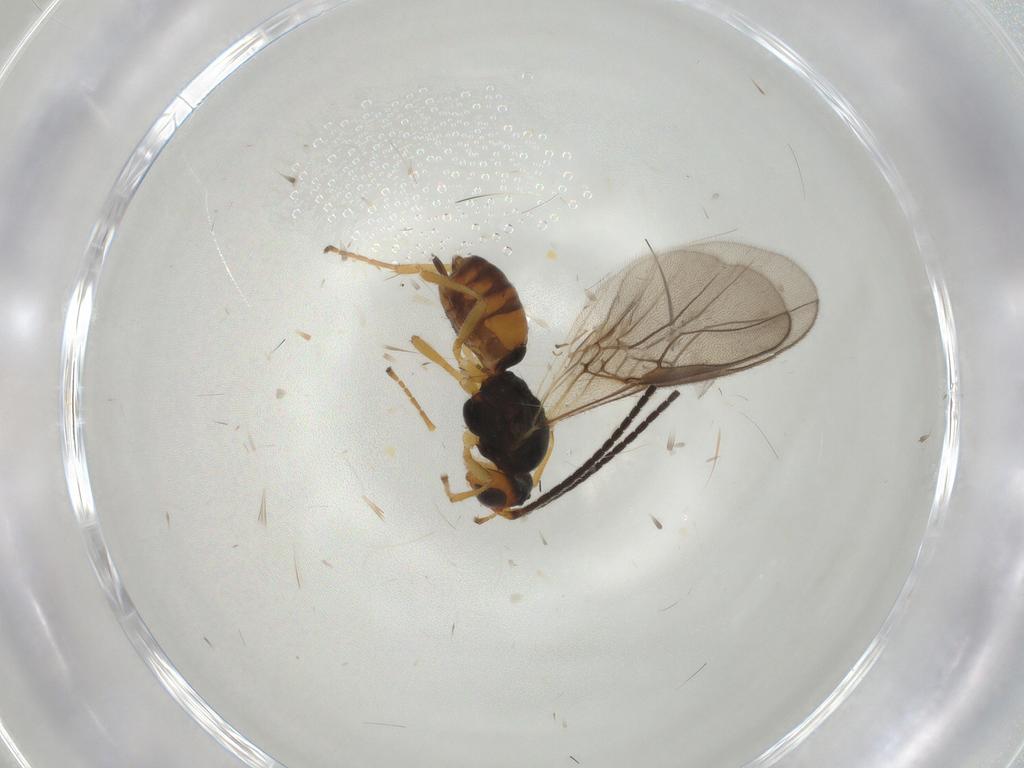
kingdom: Animalia
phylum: Arthropoda
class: Insecta
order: Hymenoptera
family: Braconidae
